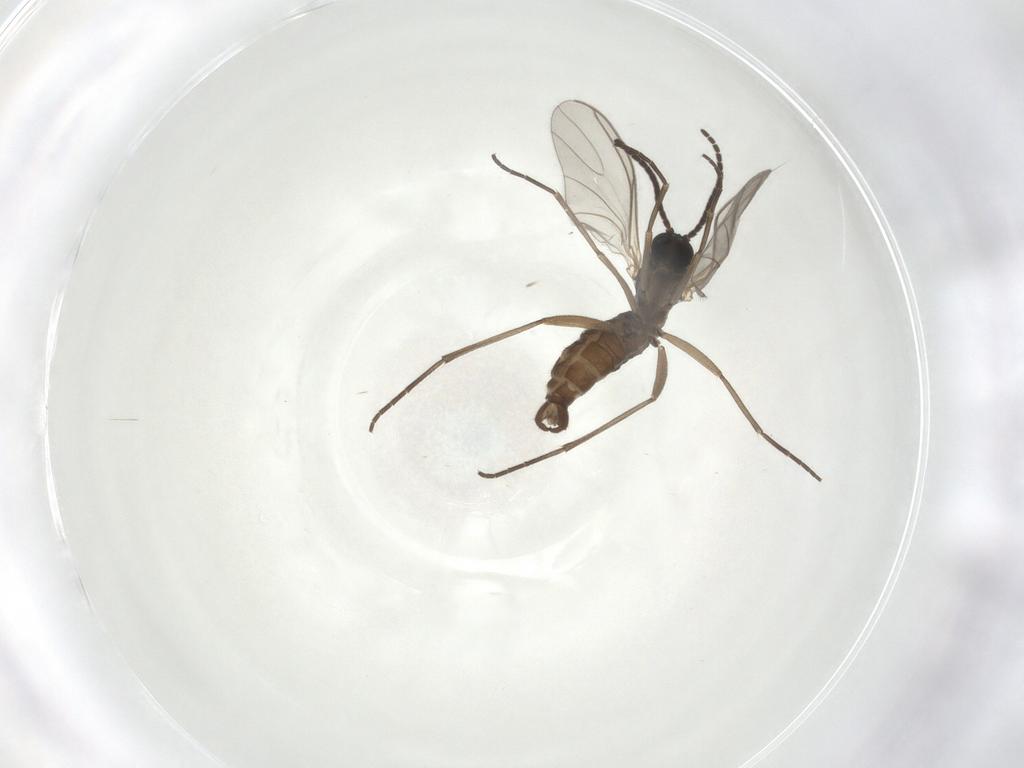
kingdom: Animalia
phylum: Arthropoda
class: Insecta
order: Diptera
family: Sciaridae
